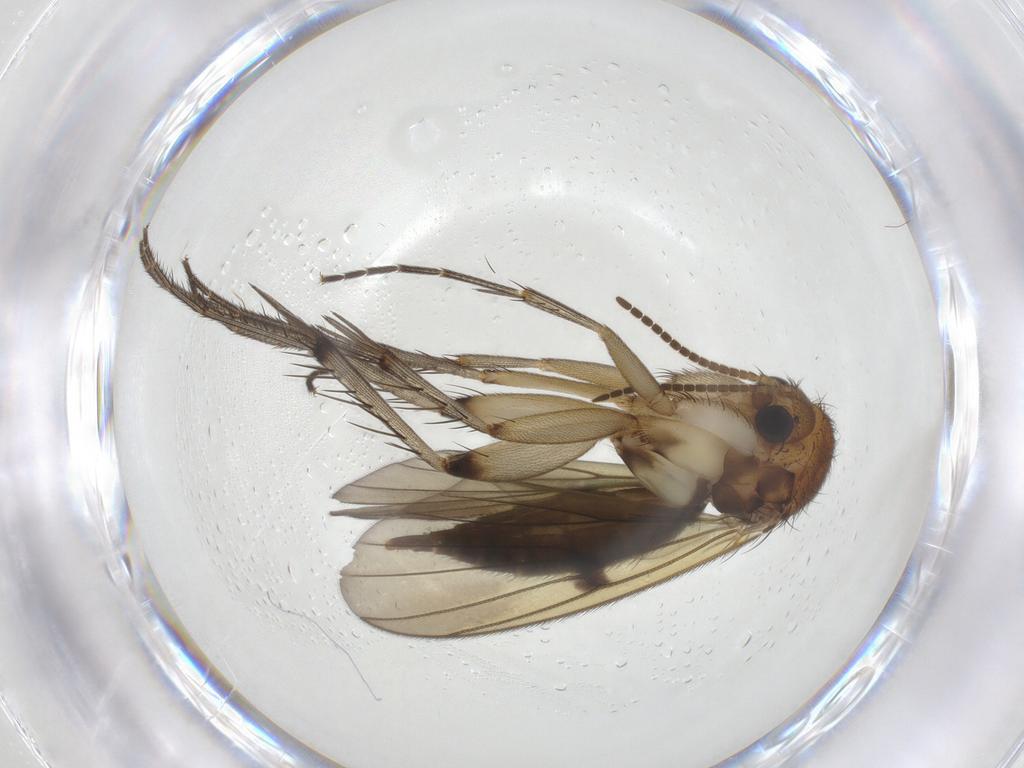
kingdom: Animalia
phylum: Arthropoda
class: Insecta
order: Diptera
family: Mycetophilidae
